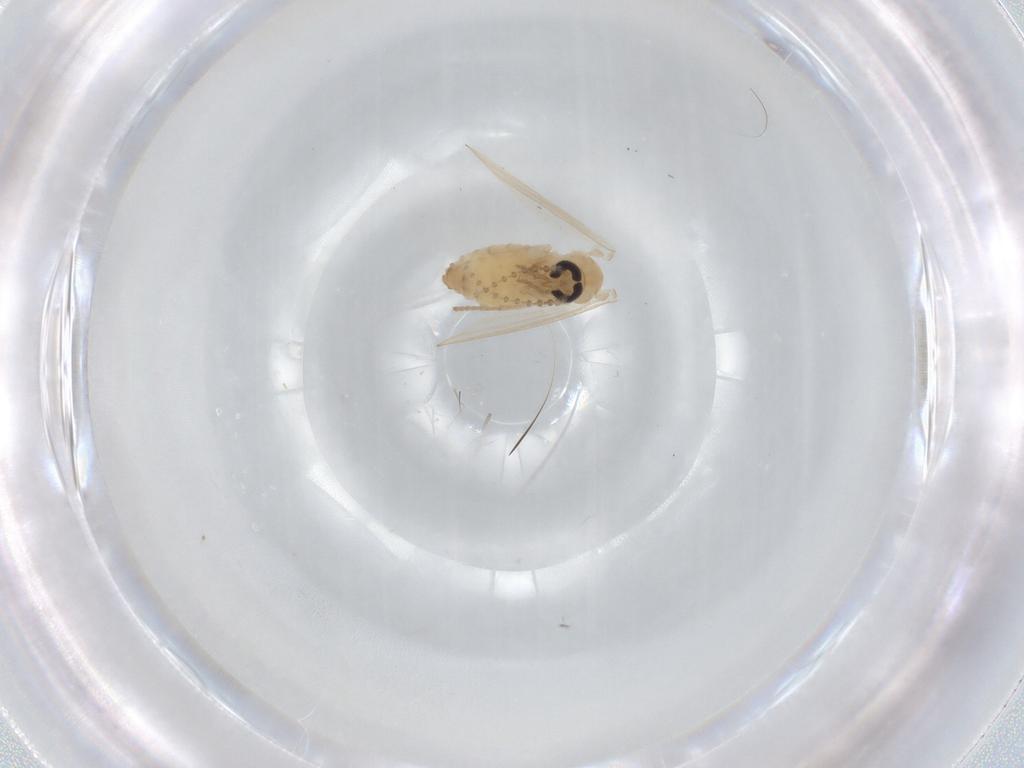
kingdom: Animalia
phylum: Arthropoda
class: Insecta
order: Diptera
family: Psychodidae
